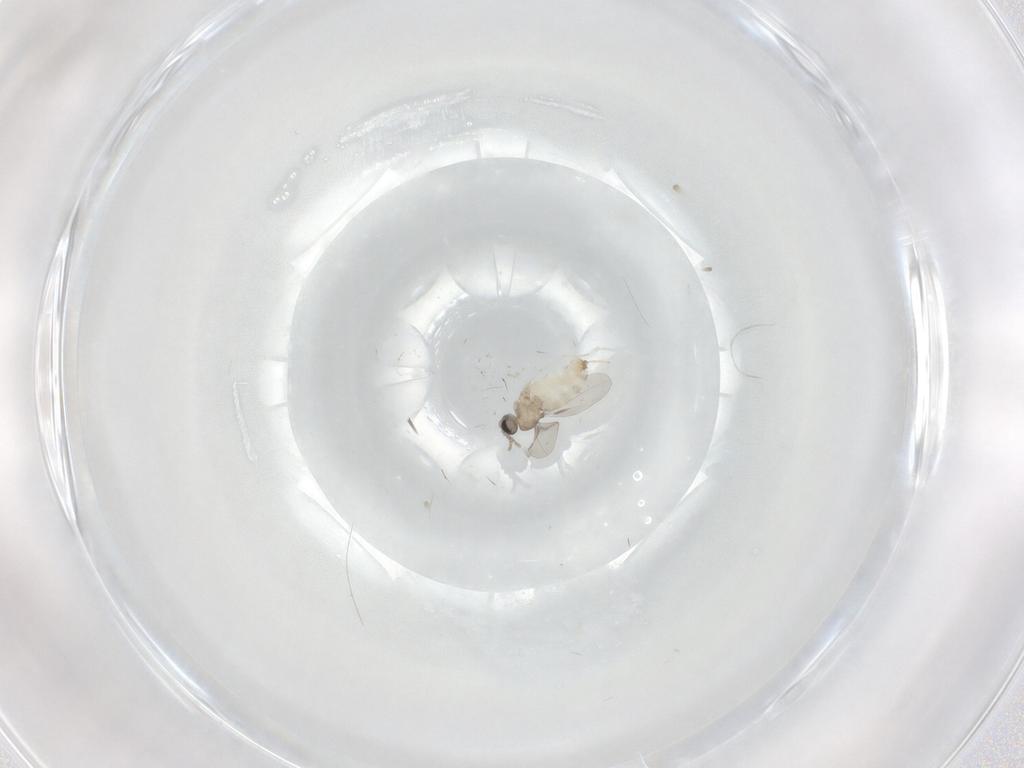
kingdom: Animalia
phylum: Arthropoda
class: Insecta
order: Diptera
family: Cecidomyiidae
